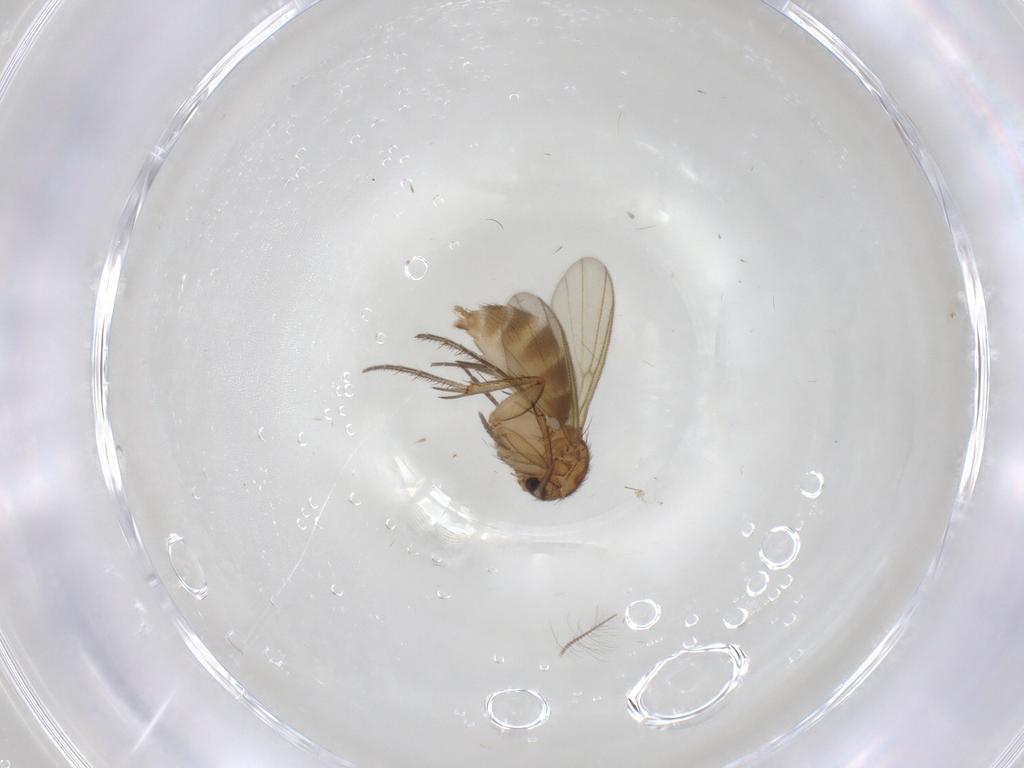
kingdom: Animalia
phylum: Arthropoda
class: Insecta
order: Diptera
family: Mycetophilidae
